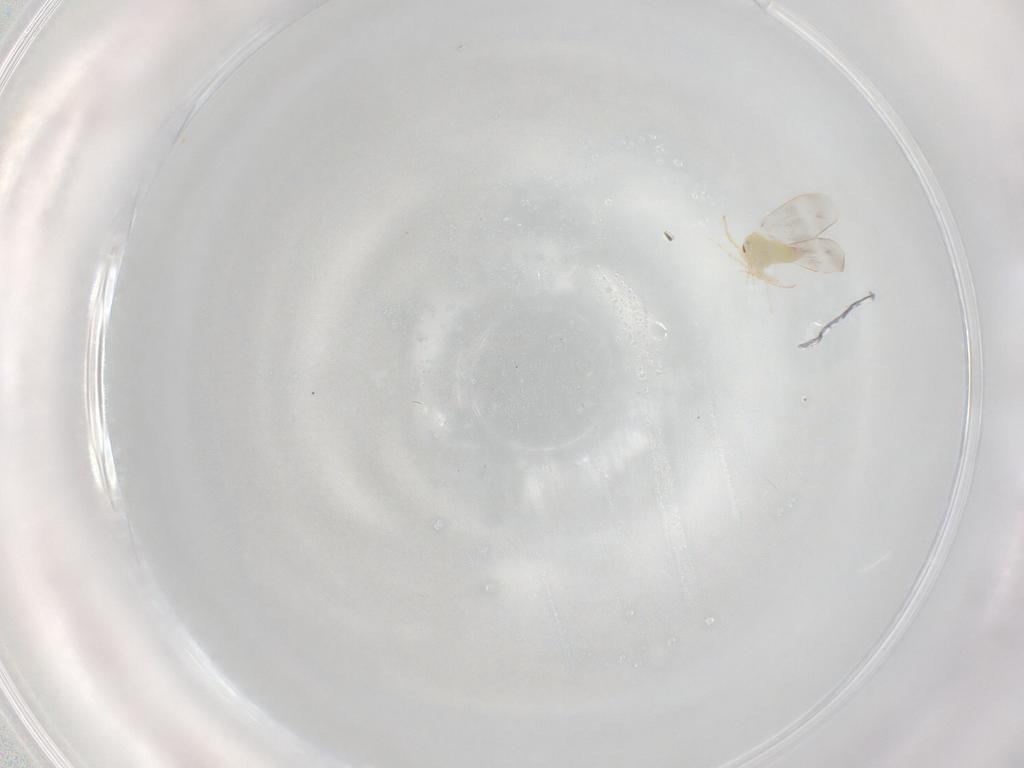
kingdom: Animalia
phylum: Arthropoda
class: Insecta
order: Hemiptera
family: Aleyrodidae
